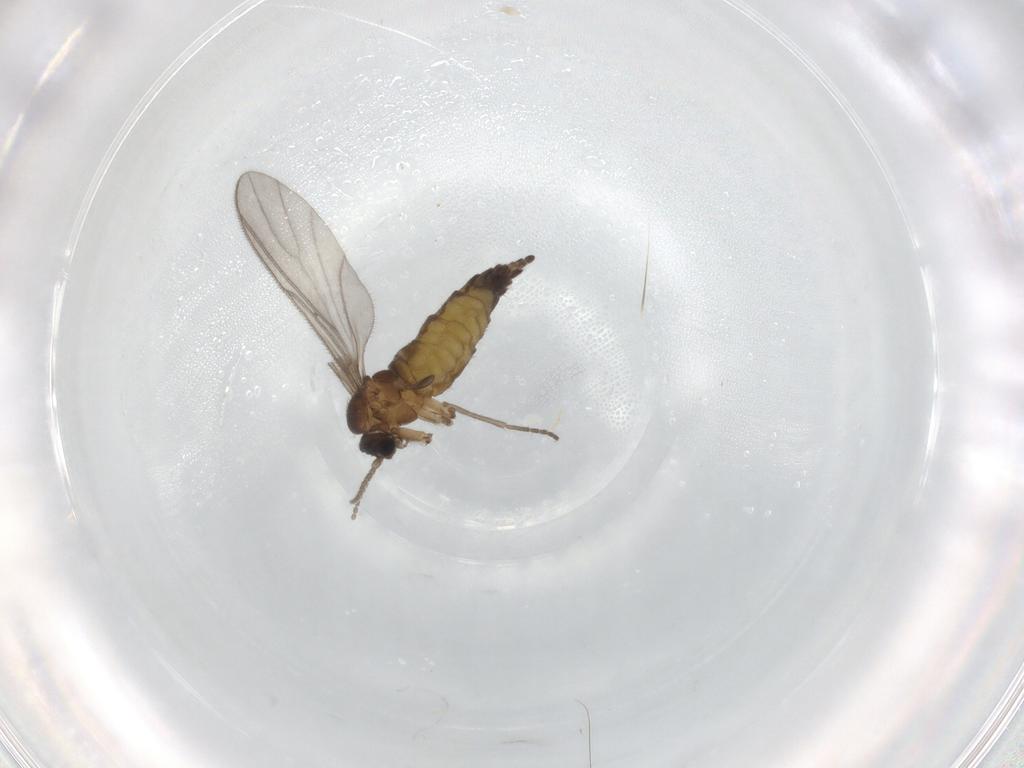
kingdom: Animalia
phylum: Arthropoda
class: Insecta
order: Diptera
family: Sciaridae
